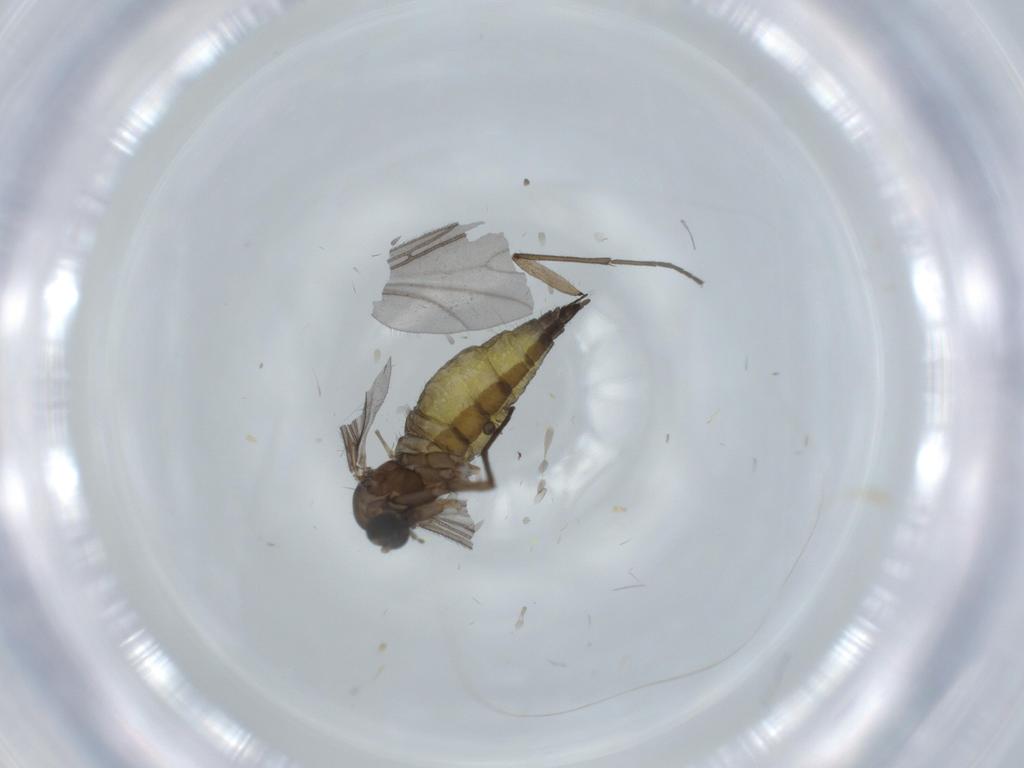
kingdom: Animalia
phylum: Arthropoda
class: Insecta
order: Diptera
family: Sciaridae
